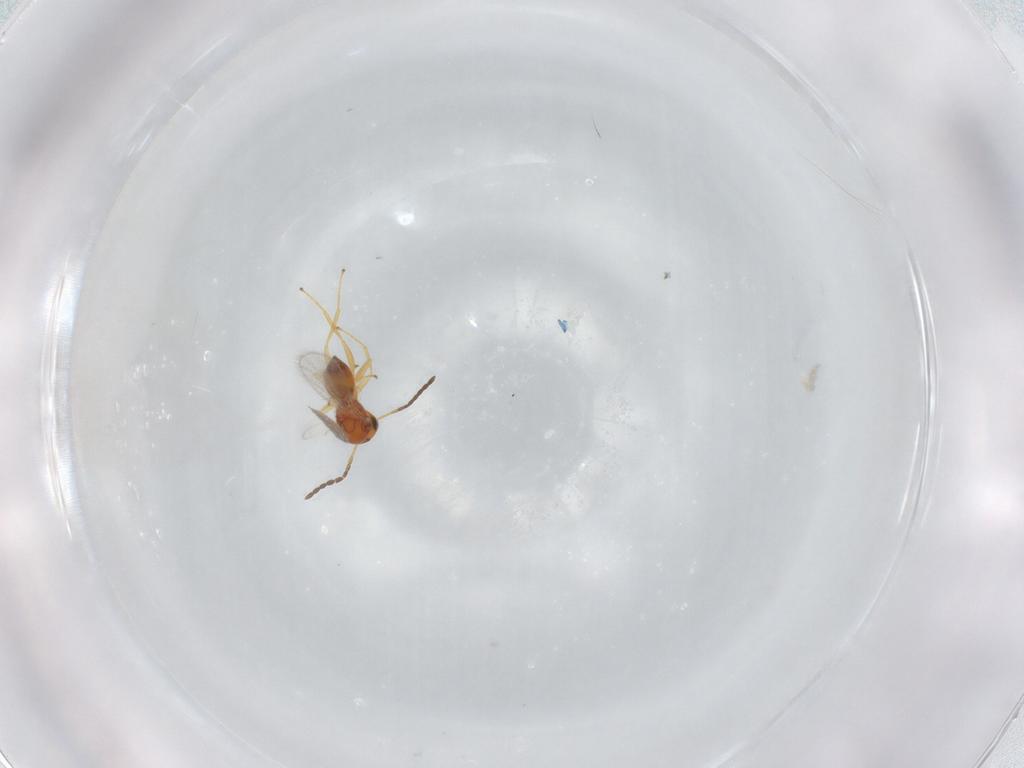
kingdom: Animalia
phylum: Arthropoda
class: Insecta
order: Hymenoptera
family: Figitidae
